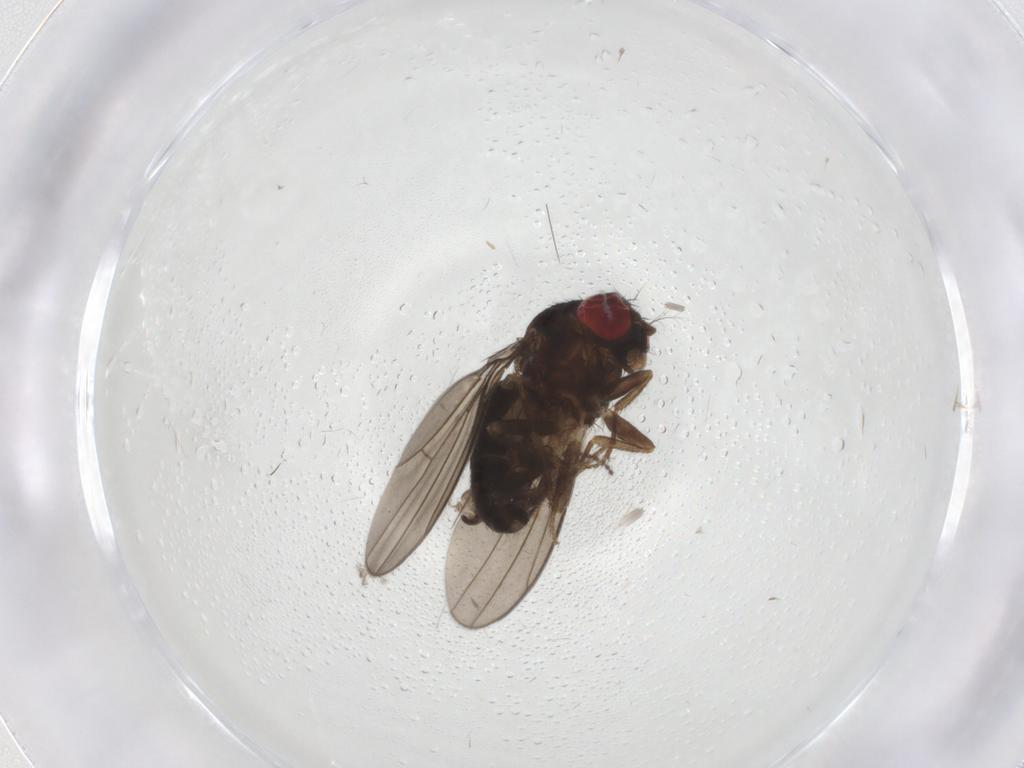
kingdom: Animalia
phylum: Arthropoda
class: Insecta
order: Diptera
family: Drosophilidae
